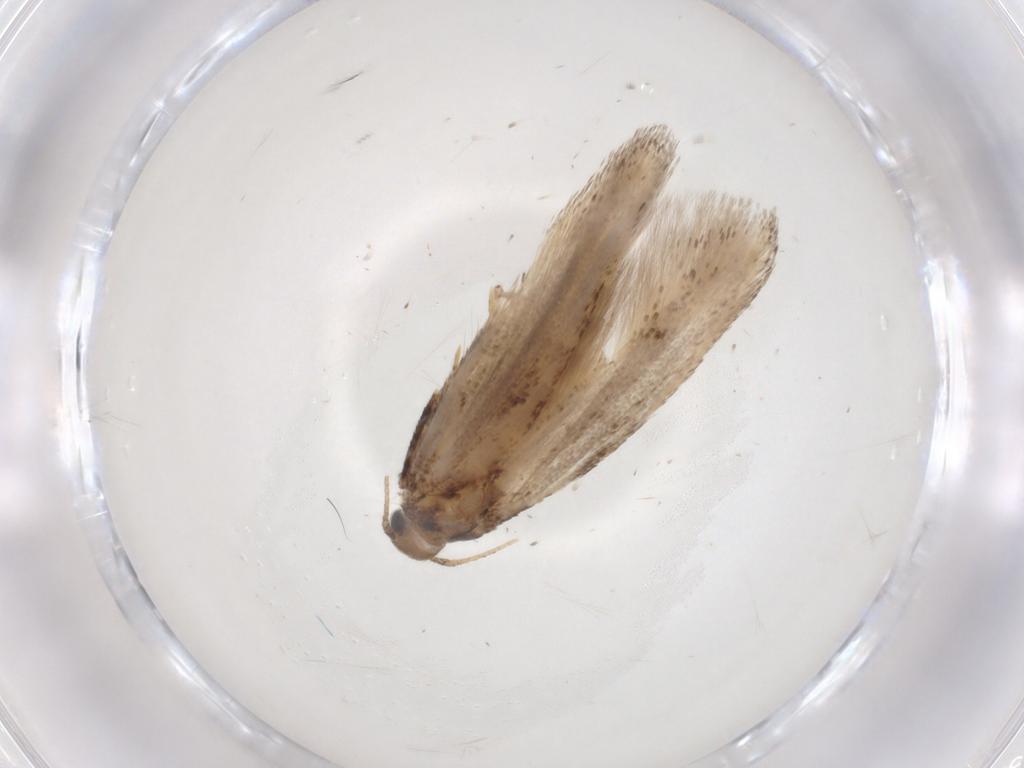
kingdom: Animalia
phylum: Arthropoda
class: Insecta
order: Lepidoptera
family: Gelechiidae
